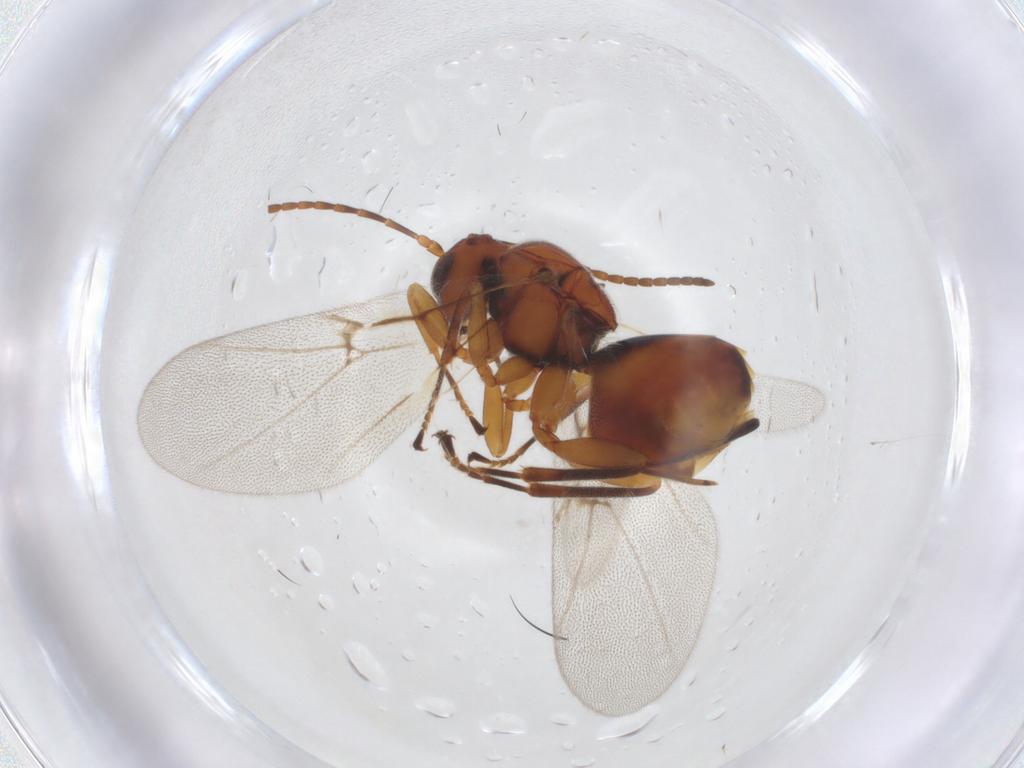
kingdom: Animalia
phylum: Arthropoda
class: Insecta
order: Hymenoptera
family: Cynipidae
